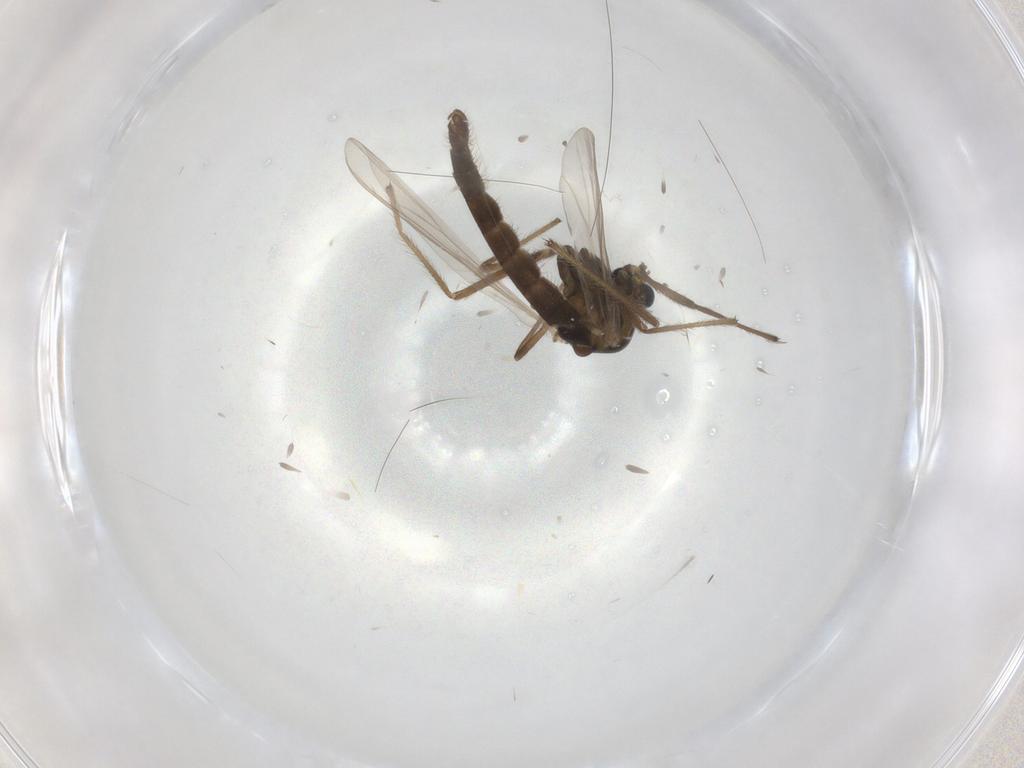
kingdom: Animalia
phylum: Arthropoda
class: Insecta
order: Diptera
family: Chironomidae
